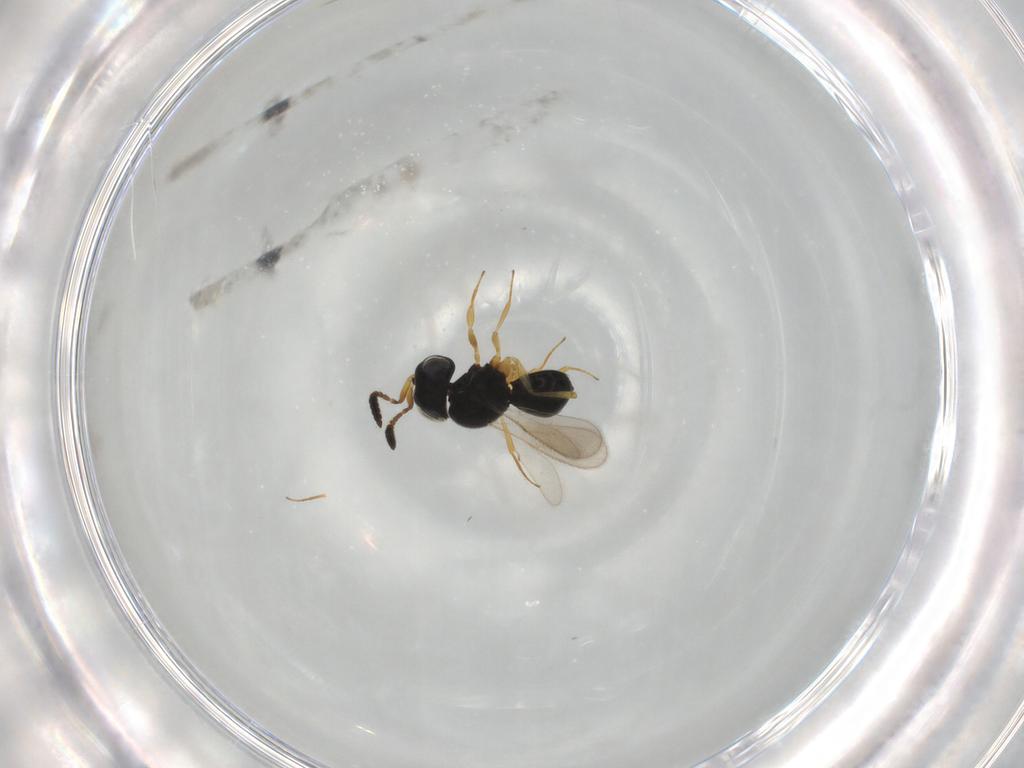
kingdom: Animalia
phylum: Arthropoda
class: Insecta
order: Hymenoptera
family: Scelionidae
